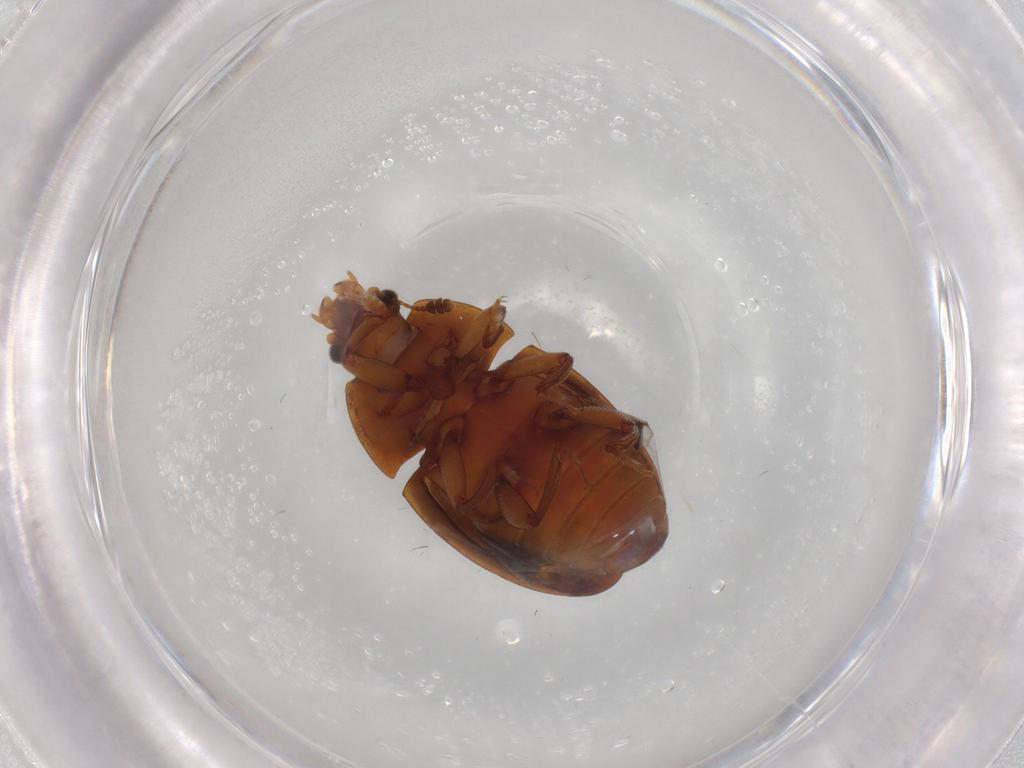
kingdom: Animalia
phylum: Arthropoda
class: Insecta
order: Coleoptera
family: Nitidulidae
